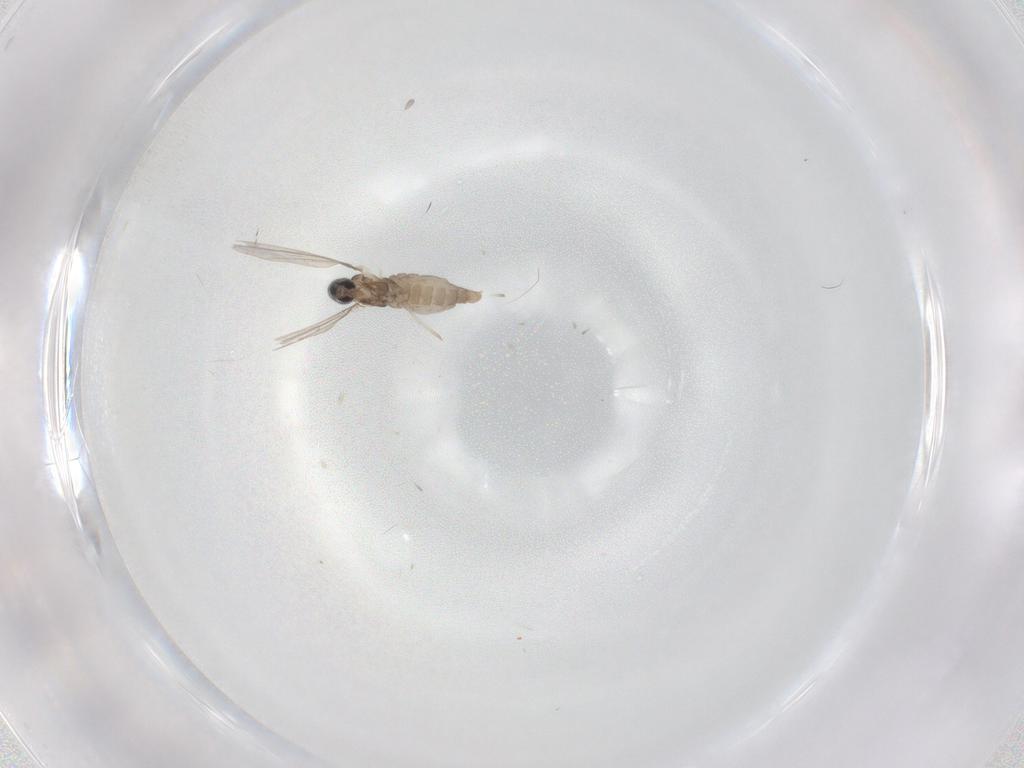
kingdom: Animalia
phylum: Arthropoda
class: Insecta
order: Diptera
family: Cecidomyiidae
